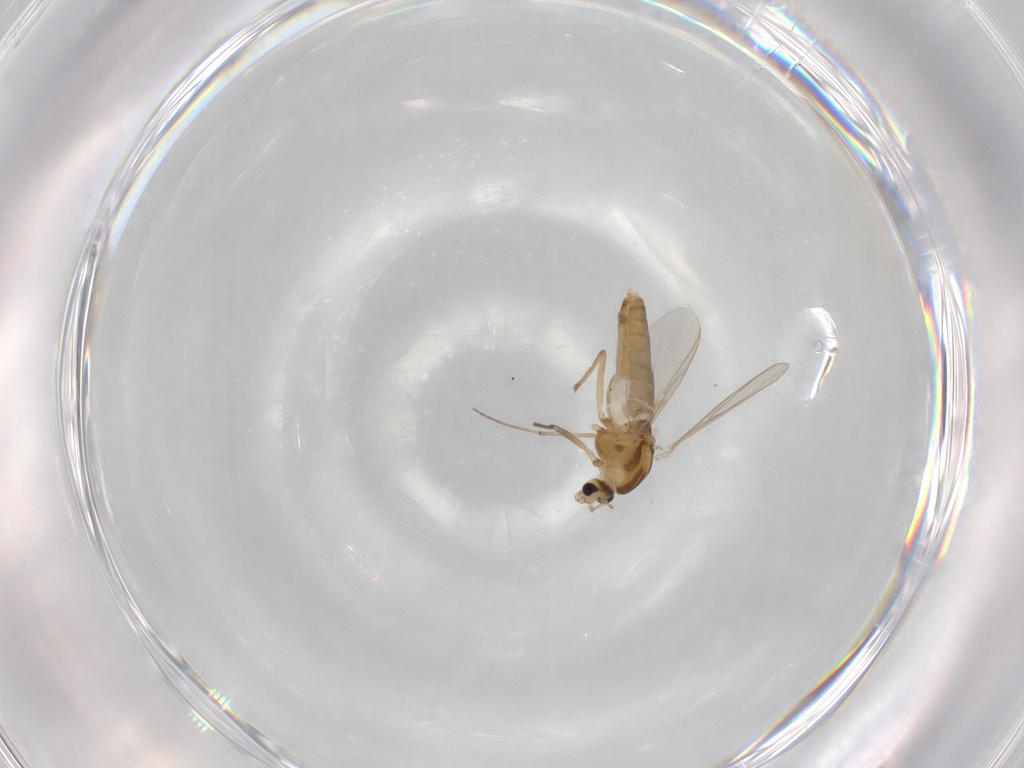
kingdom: Animalia
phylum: Arthropoda
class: Insecta
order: Diptera
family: Chironomidae
